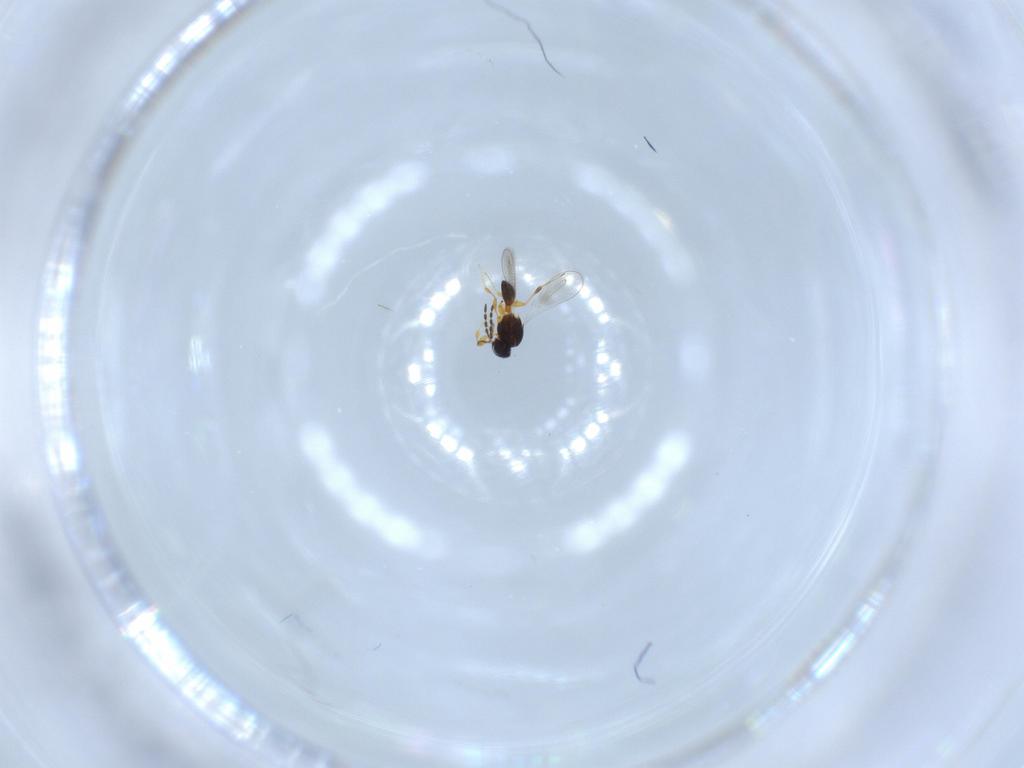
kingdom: Animalia
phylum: Arthropoda
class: Insecta
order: Hymenoptera
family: Platygastridae
